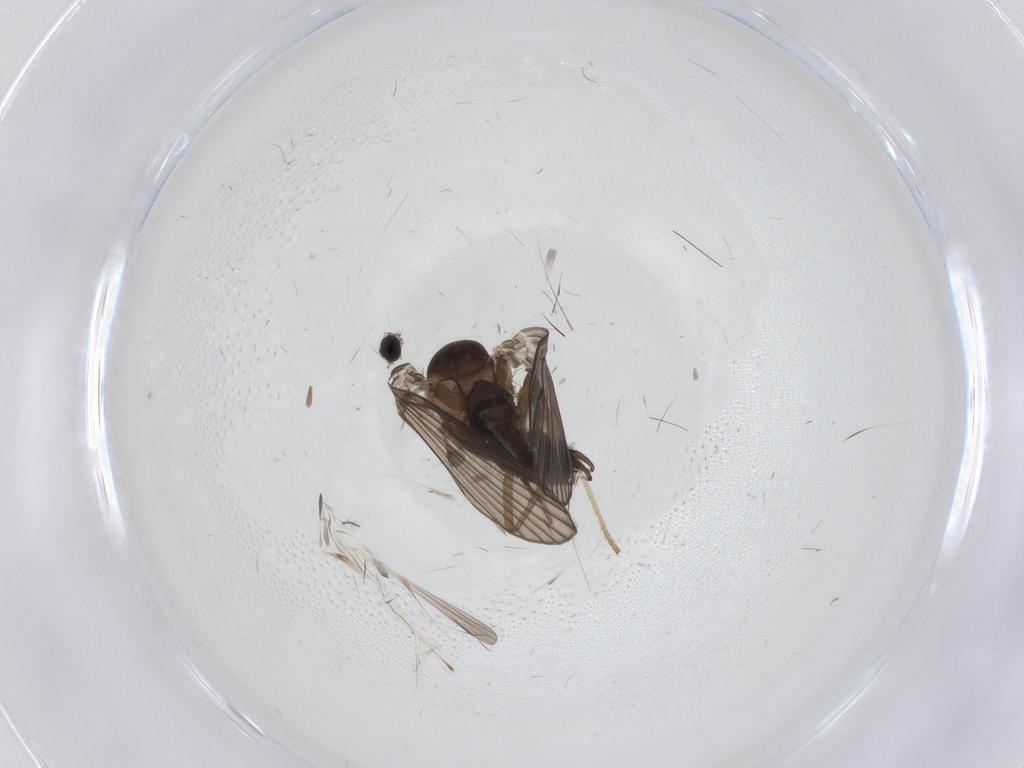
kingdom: Animalia
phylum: Arthropoda
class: Insecta
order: Diptera
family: Psychodidae
